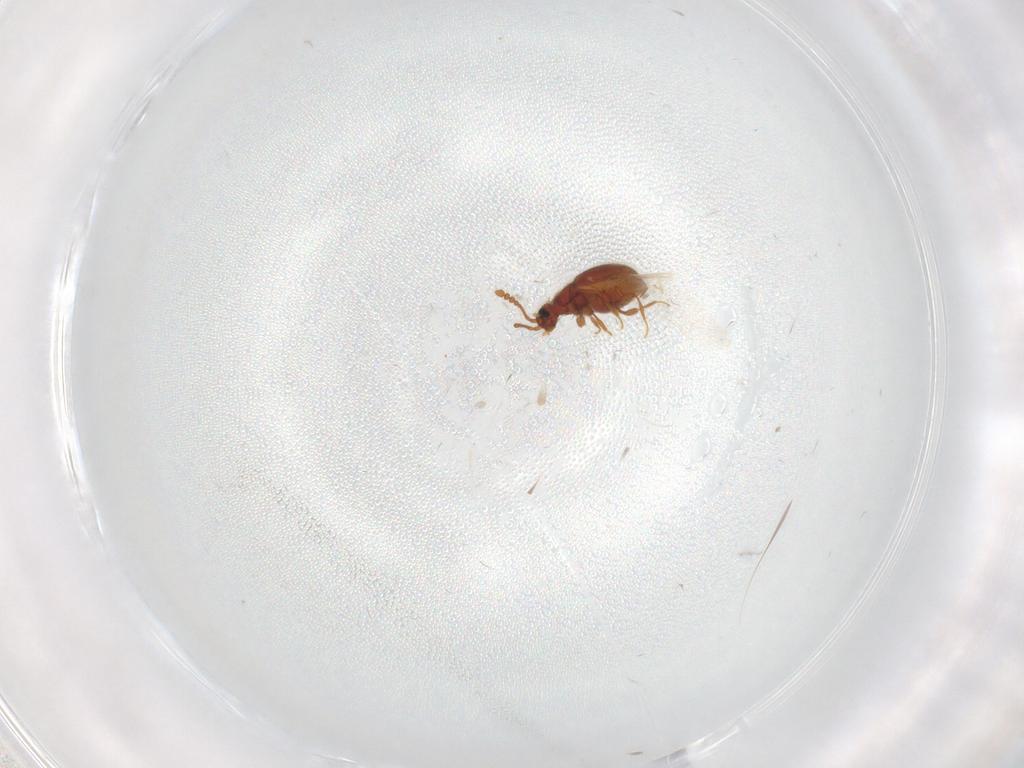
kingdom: Animalia
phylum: Arthropoda
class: Insecta
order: Coleoptera
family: Staphylinidae
